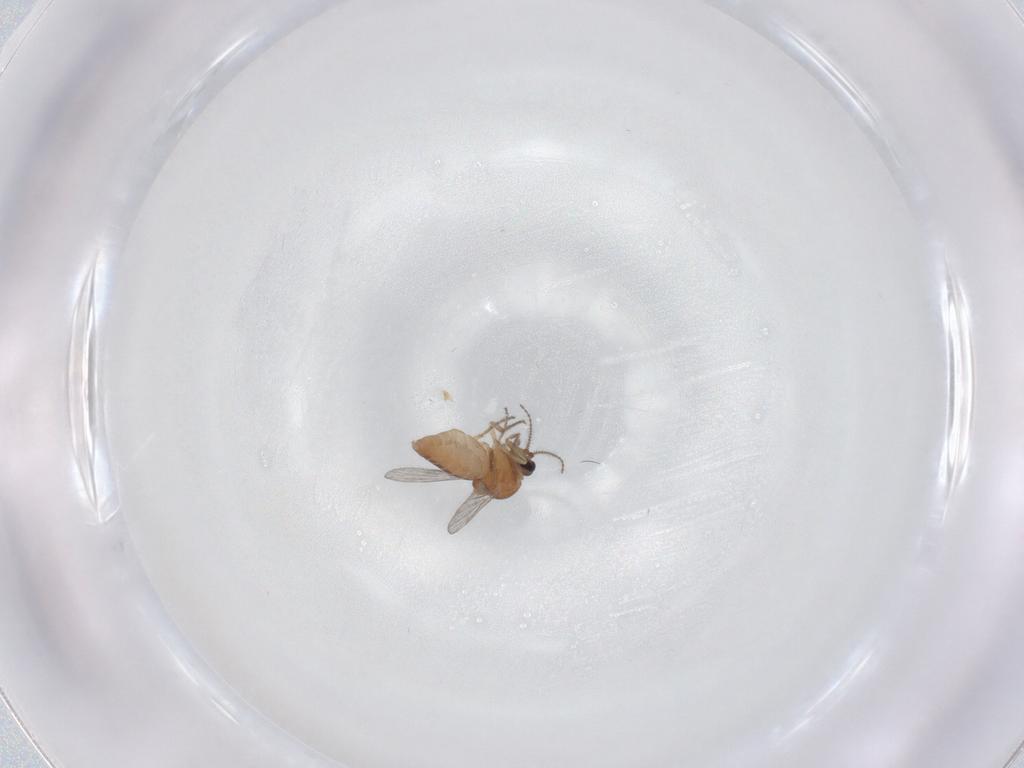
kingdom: Animalia
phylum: Arthropoda
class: Insecta
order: Diptera
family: Ceratopogonidae
